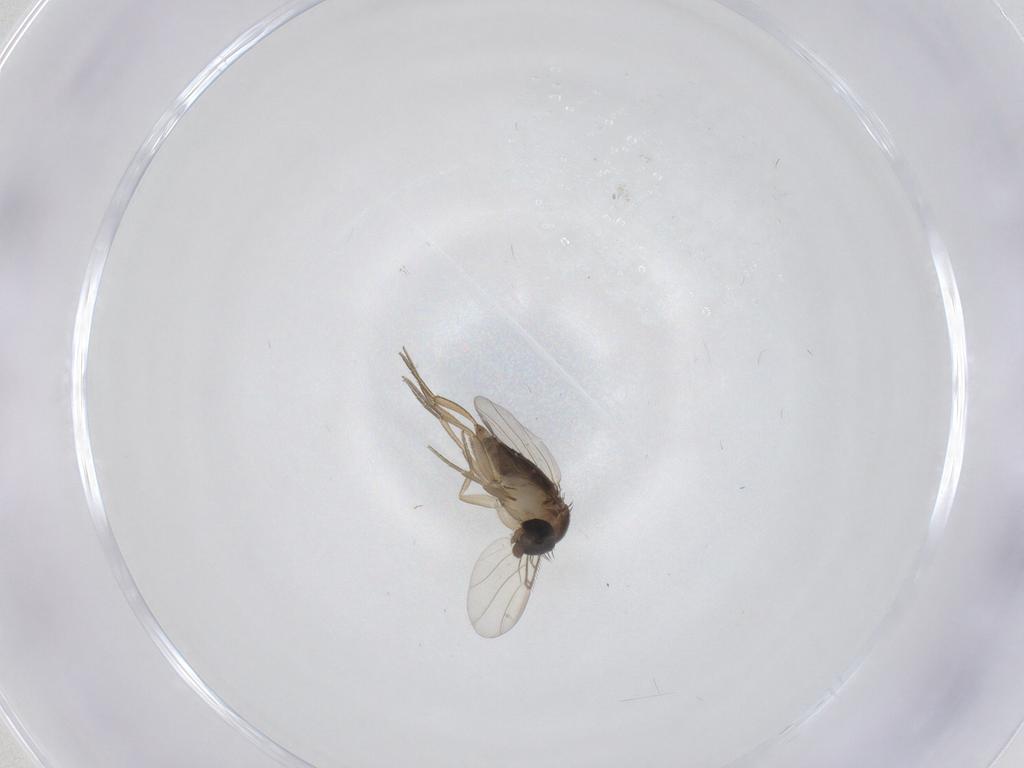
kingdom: Animalia
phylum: Arthropoda
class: Insecta
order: Diptera
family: Phoridae
